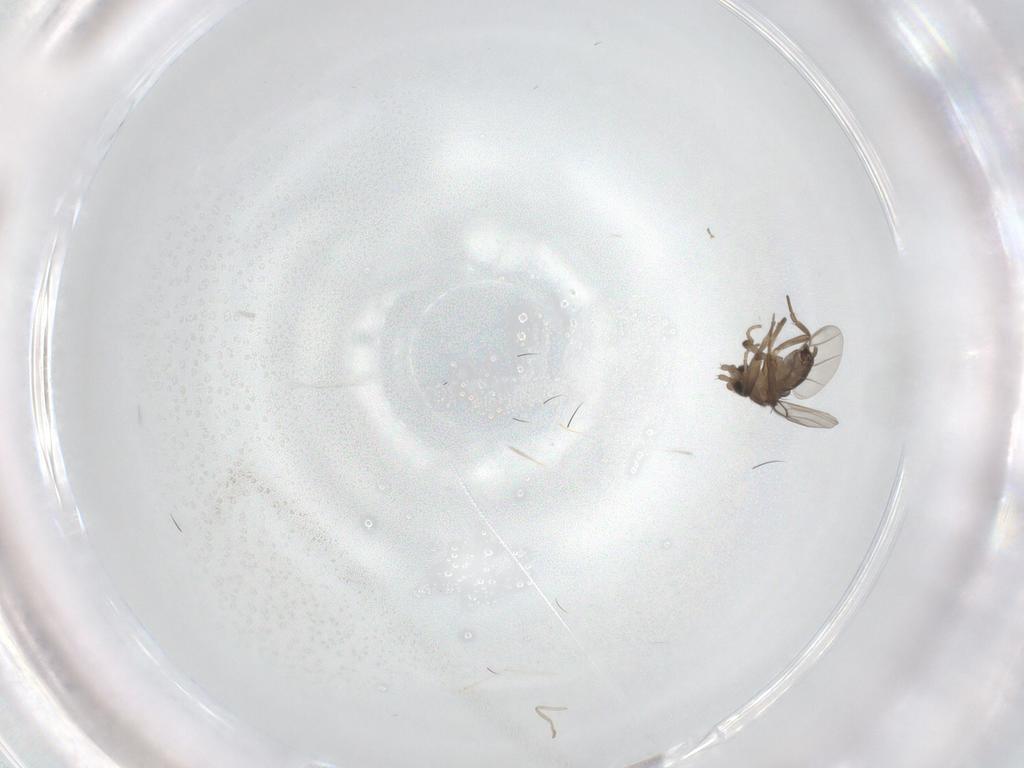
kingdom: Animalia
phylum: Arthropoda
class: Insecta
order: Diptera
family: Phoridae
